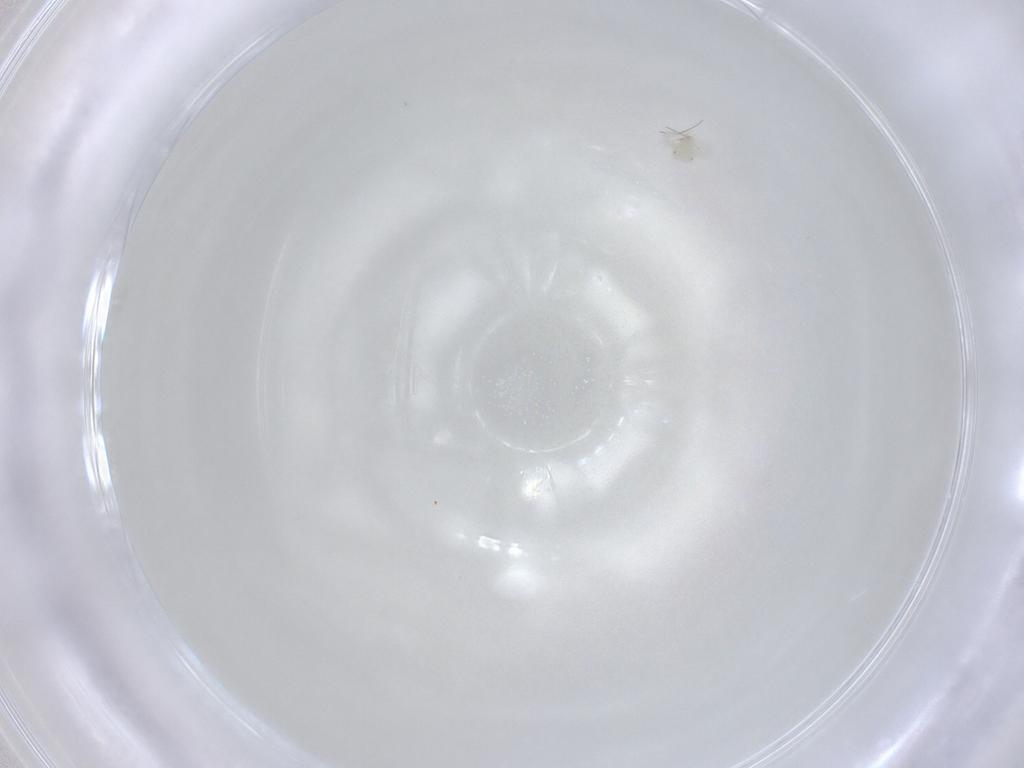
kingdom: Animalia
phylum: Arthropoda
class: Arachnida
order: Trombidiformes
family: Anystidae
